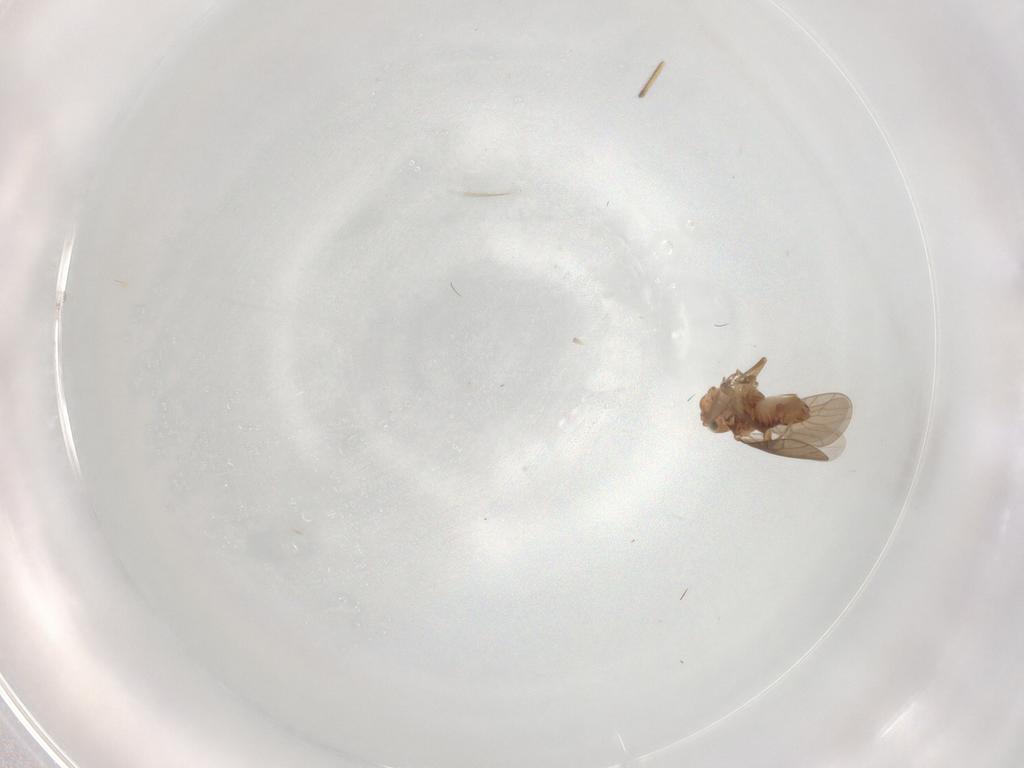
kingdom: Animalia
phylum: Arthropoda
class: Insecta
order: Psocodea
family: Lepidopsocidae
